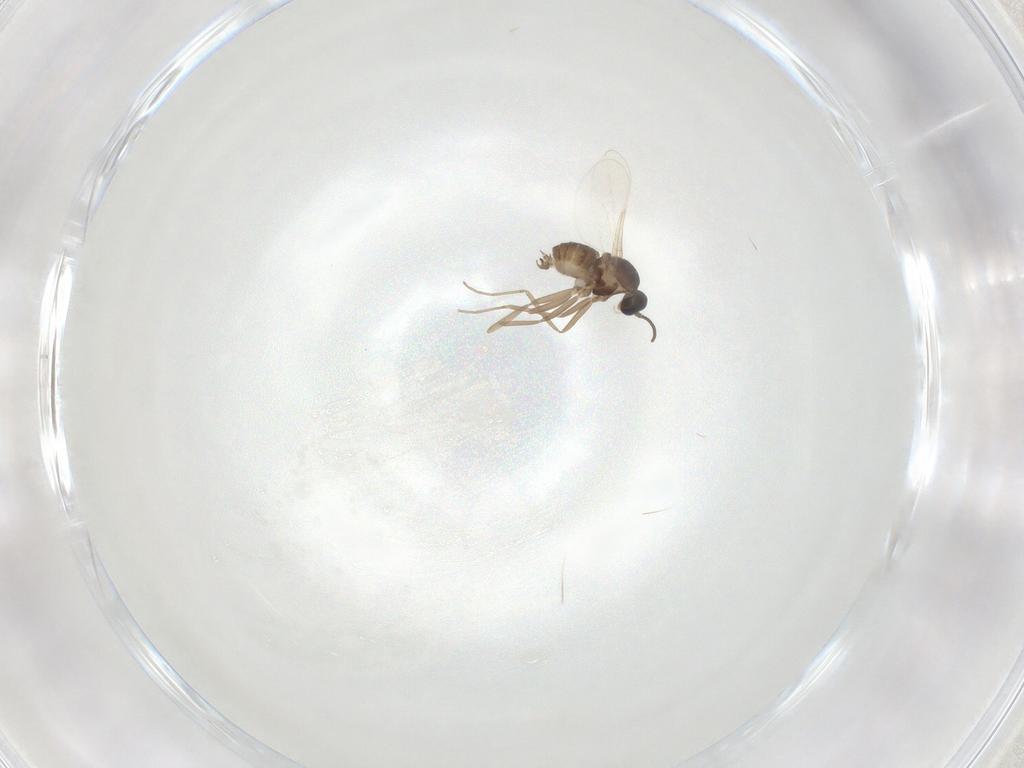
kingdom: Animalia
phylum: Arthropoda
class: Insecta
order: Diptera
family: Cecidomyiidae
